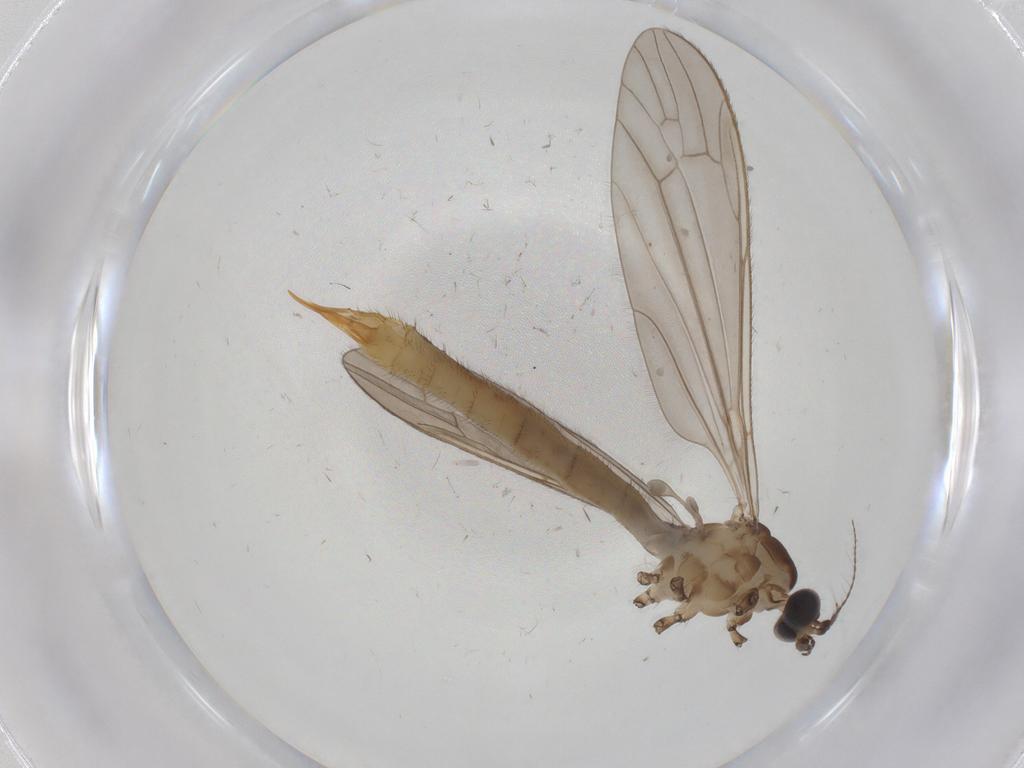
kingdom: Animalia
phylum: Arthropoda
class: Insecta
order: Diptera
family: Limoniidae
